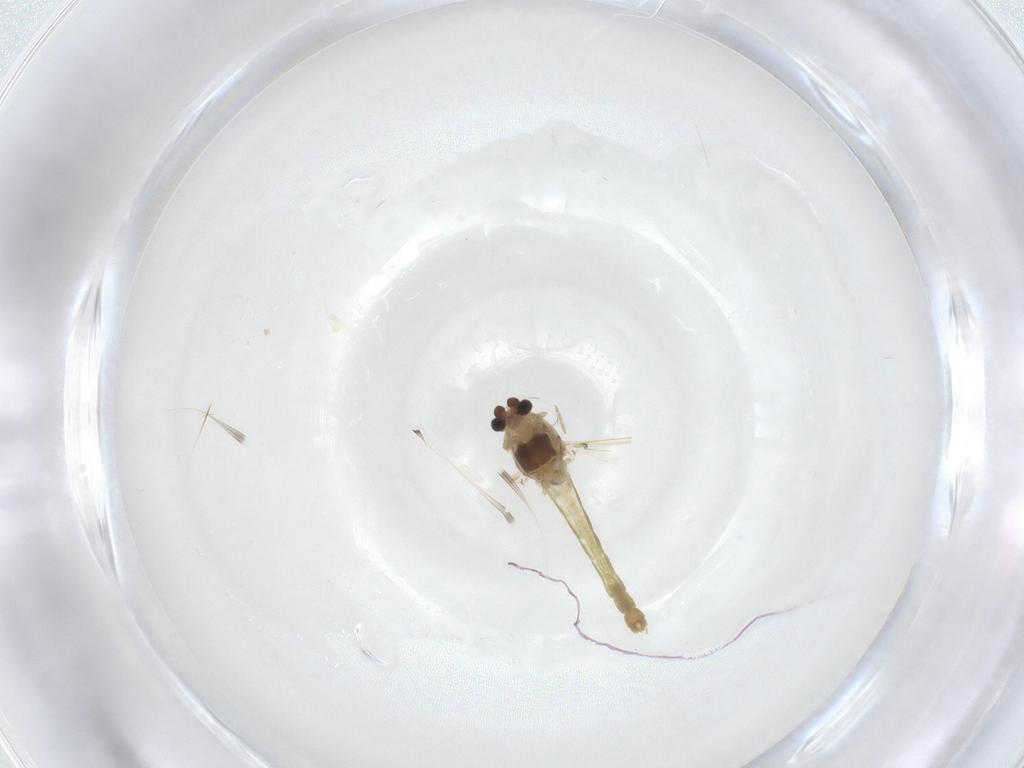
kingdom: Animalia
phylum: Arthropoda
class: Insecta
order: Diptera
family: Chironomidae
